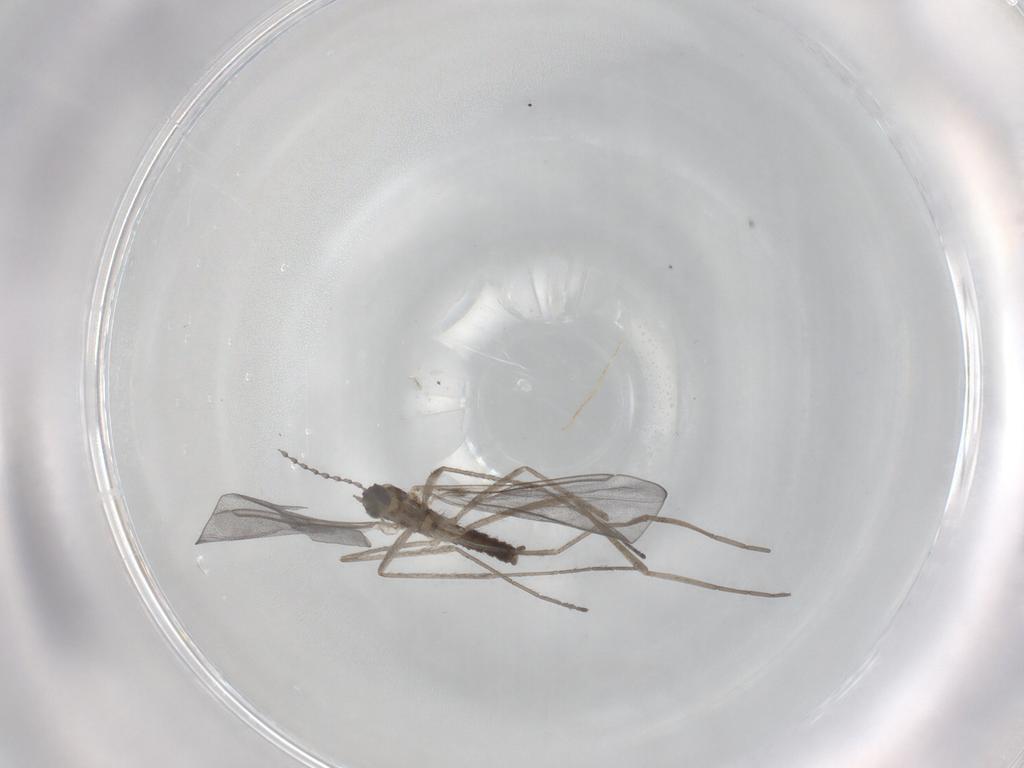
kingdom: Animalia
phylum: Arthropoda
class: Insecta
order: Diptera
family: Cecidomyiidae
